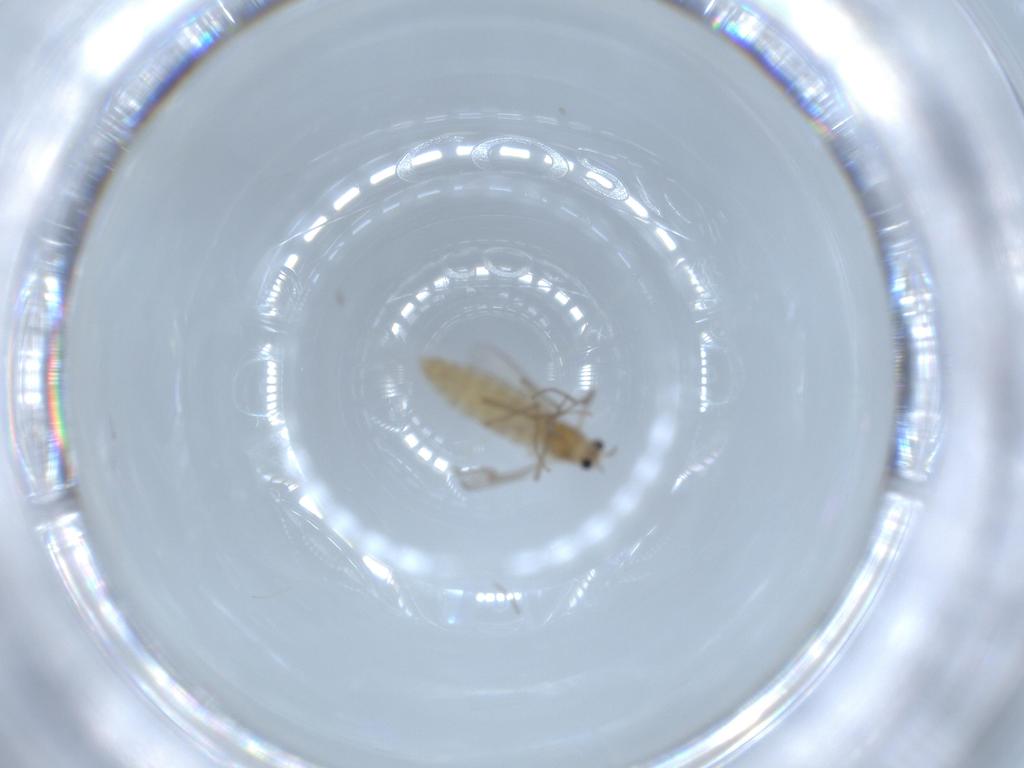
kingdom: Animalia
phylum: Arthropoda
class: Insecta
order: Diptera
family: Chironomidae
